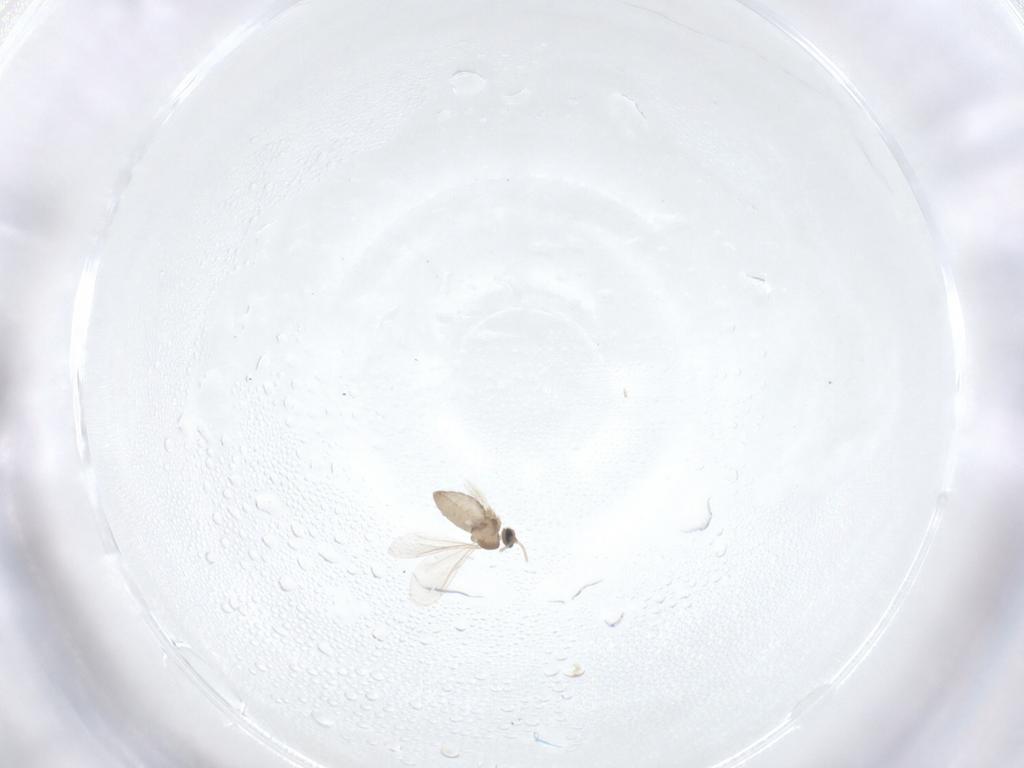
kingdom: Animalia
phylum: Arthropoda
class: Insecta
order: Diptera
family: Cecidomyiidae
